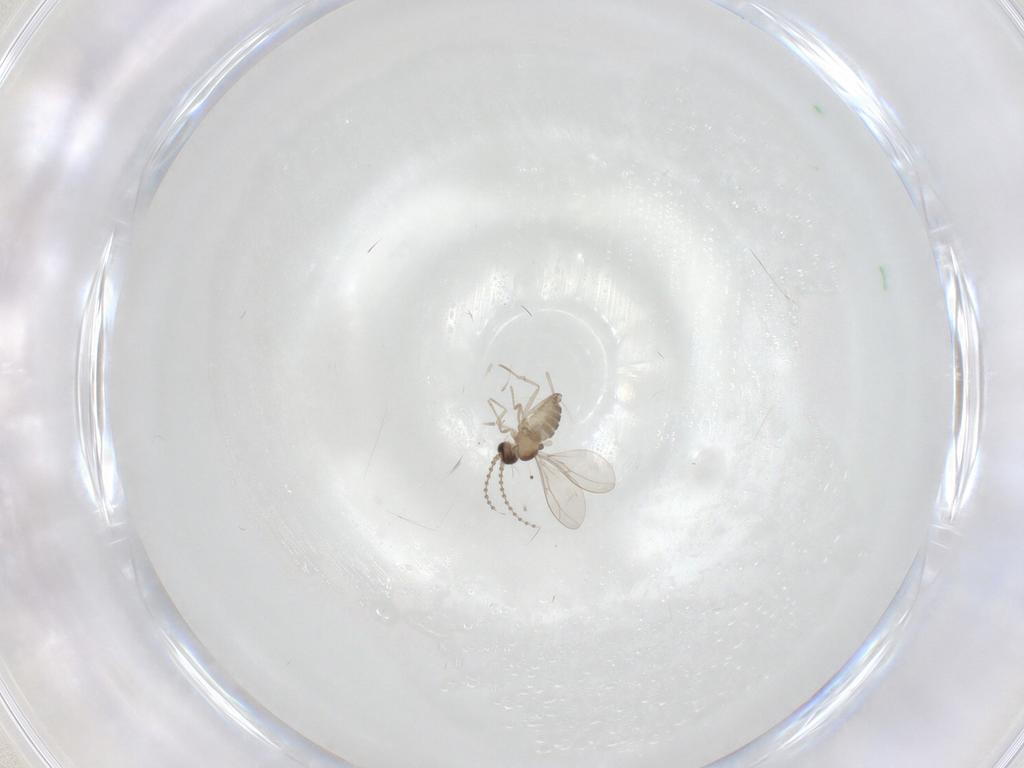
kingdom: Animalia
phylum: Arthropoda
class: Insecta
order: Diptera
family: Cecidomyiidae
